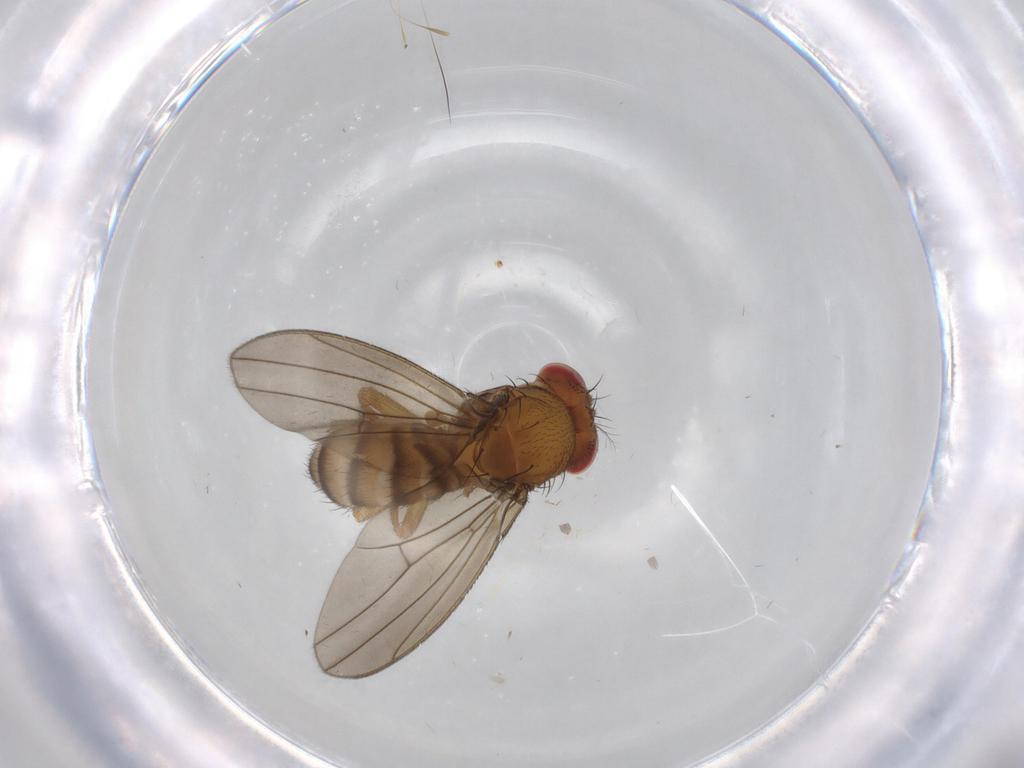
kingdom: Animalia
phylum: Arthropoda
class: Insecta
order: Diptera
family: Drosophilidae
